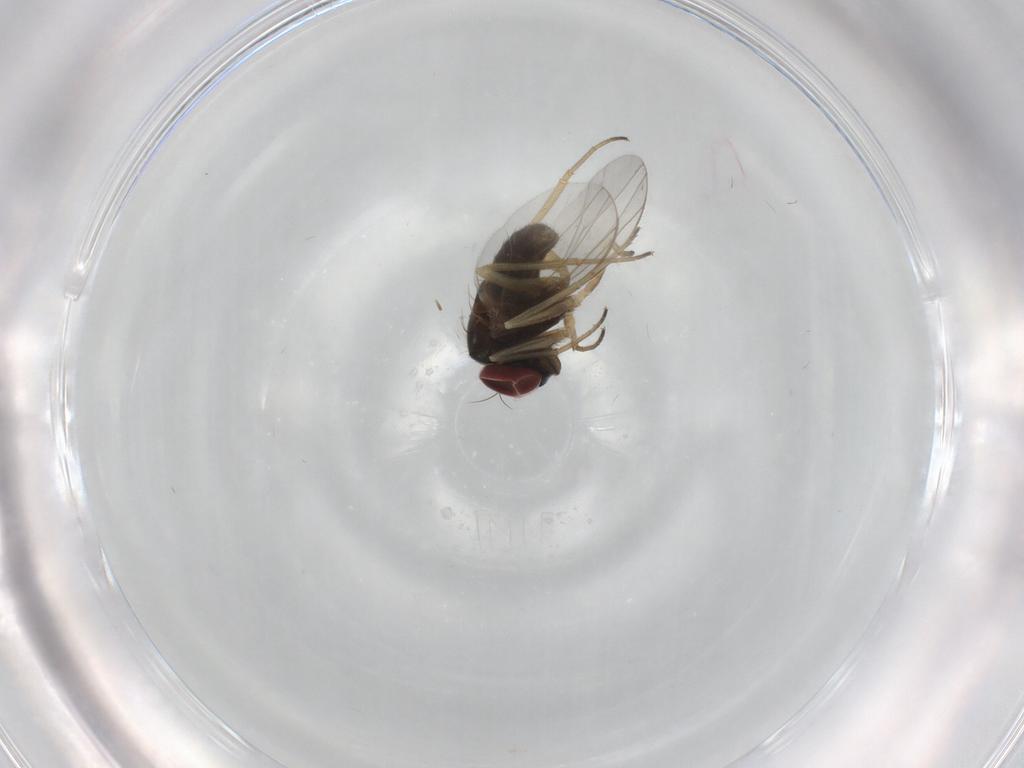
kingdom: Animalia
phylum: Arthropoda
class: Insecta
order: Diptera
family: Dolichopodidae
